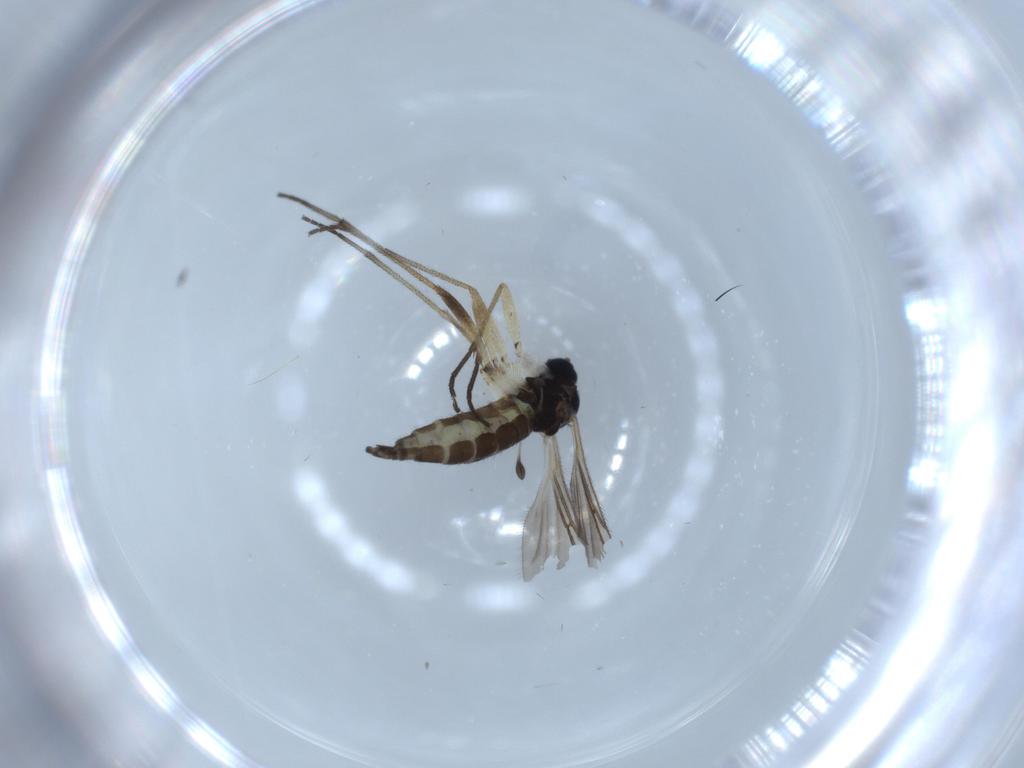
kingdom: Animalia
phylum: Arthropoda
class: Insecta
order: Diptera
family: Sciaridae
